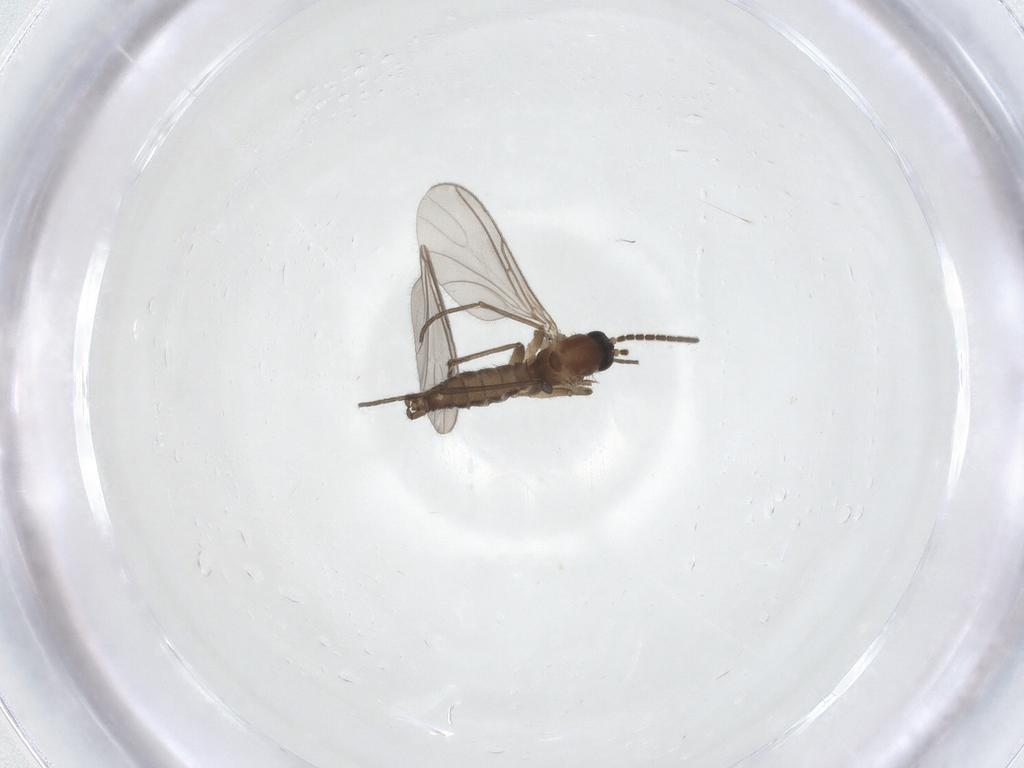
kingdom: Animalia
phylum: Arthropoda
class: Insecta
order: Diptera
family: Sciaridae
